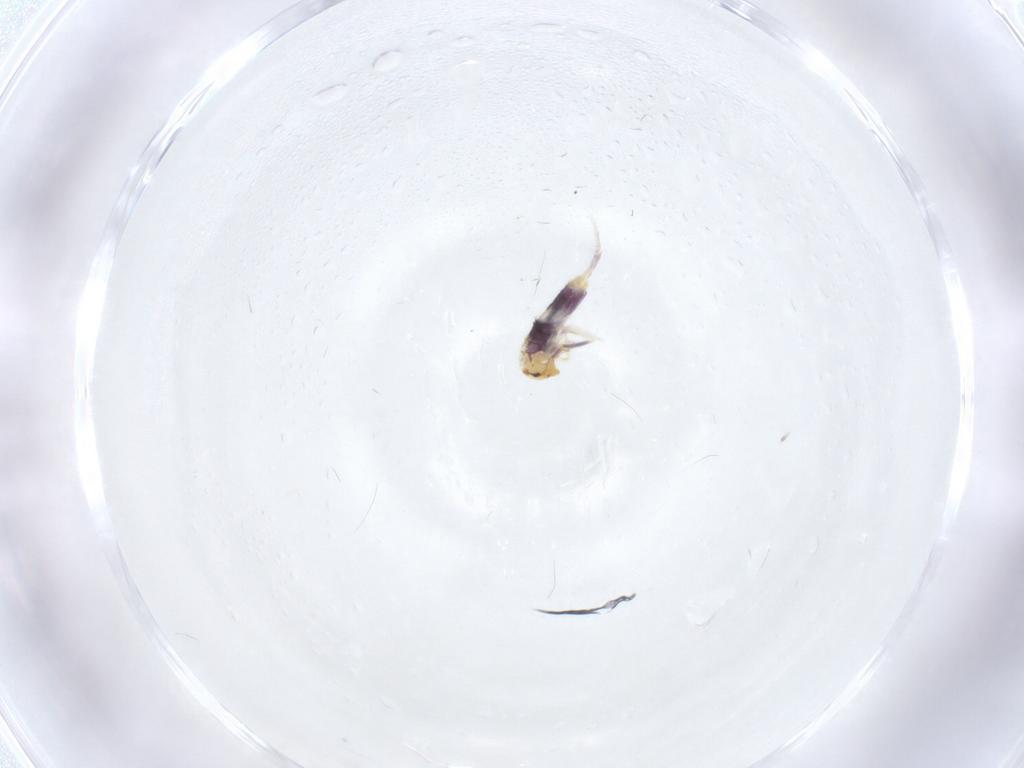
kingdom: Animalia
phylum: Arthropoda
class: Collembola
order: Entomobryomorpha
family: Entomobryidae
